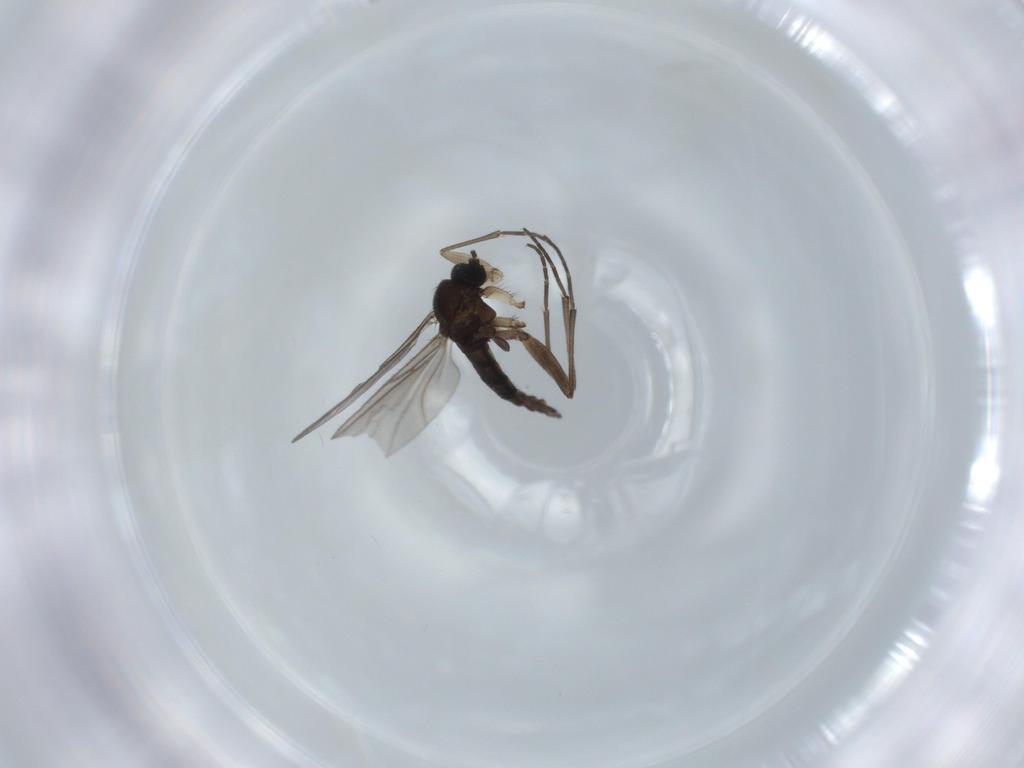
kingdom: Animalia
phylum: Arthropoda
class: Insecta
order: Diptera
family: Sciaridae
